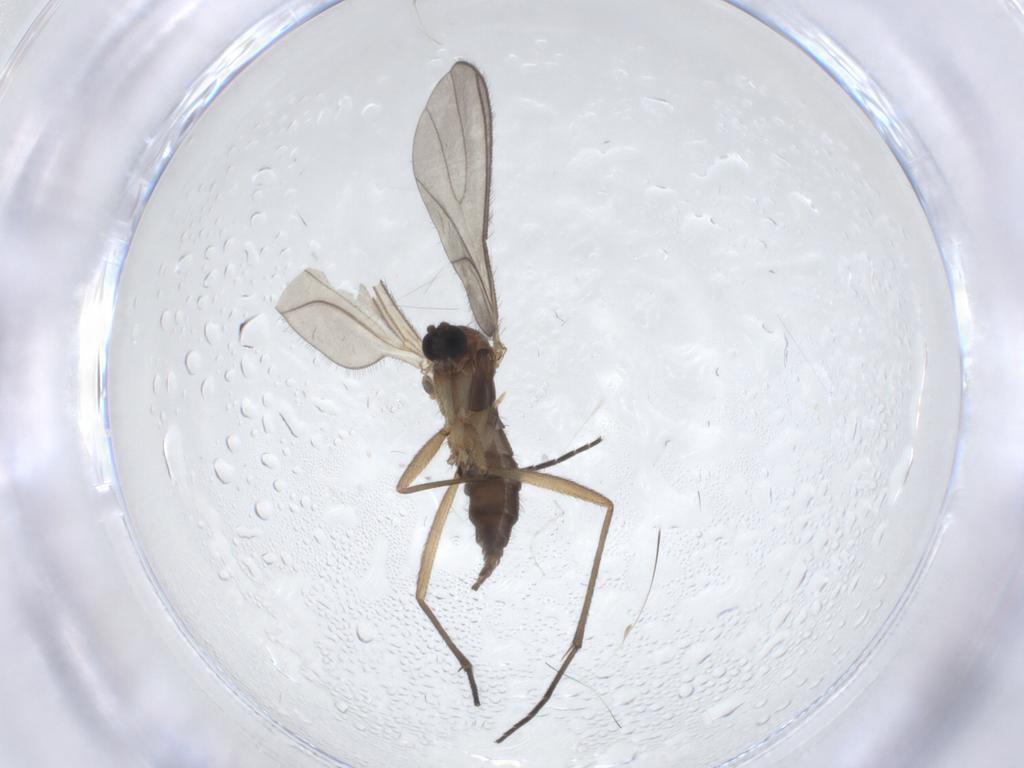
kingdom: Animalia
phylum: Arthropoda
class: Insecta
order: Diptera
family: Sciaridae
